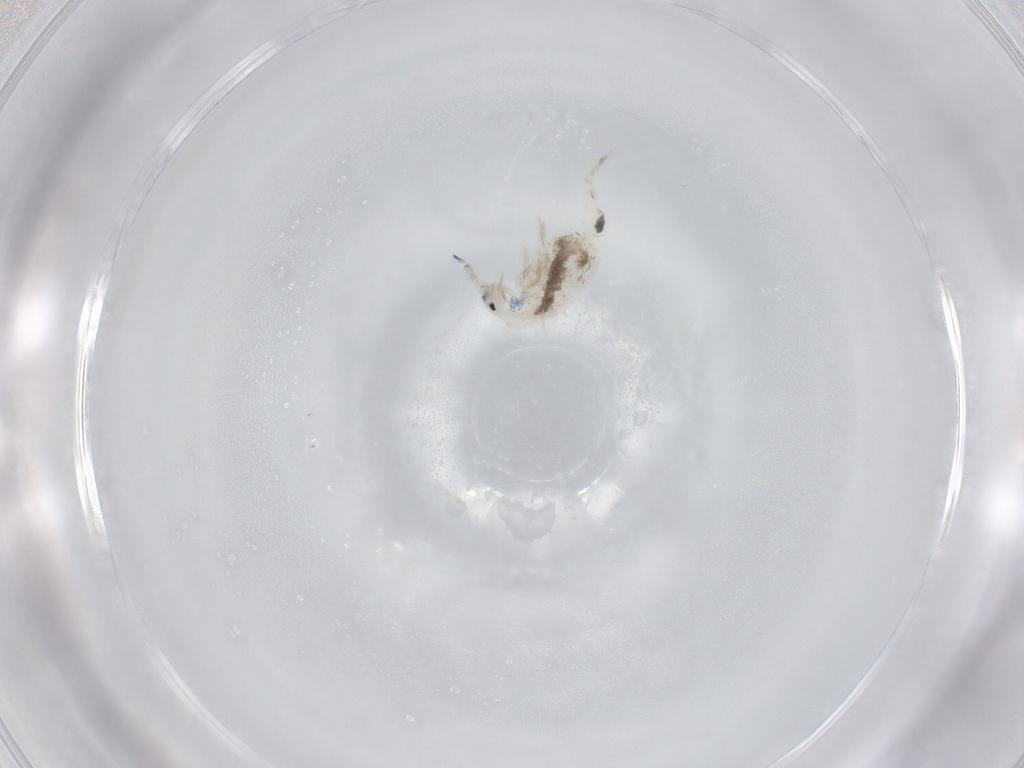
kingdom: Animalia
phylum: Arthropoda
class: Collembola
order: Entomobryomorpha
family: Entomobryidae
